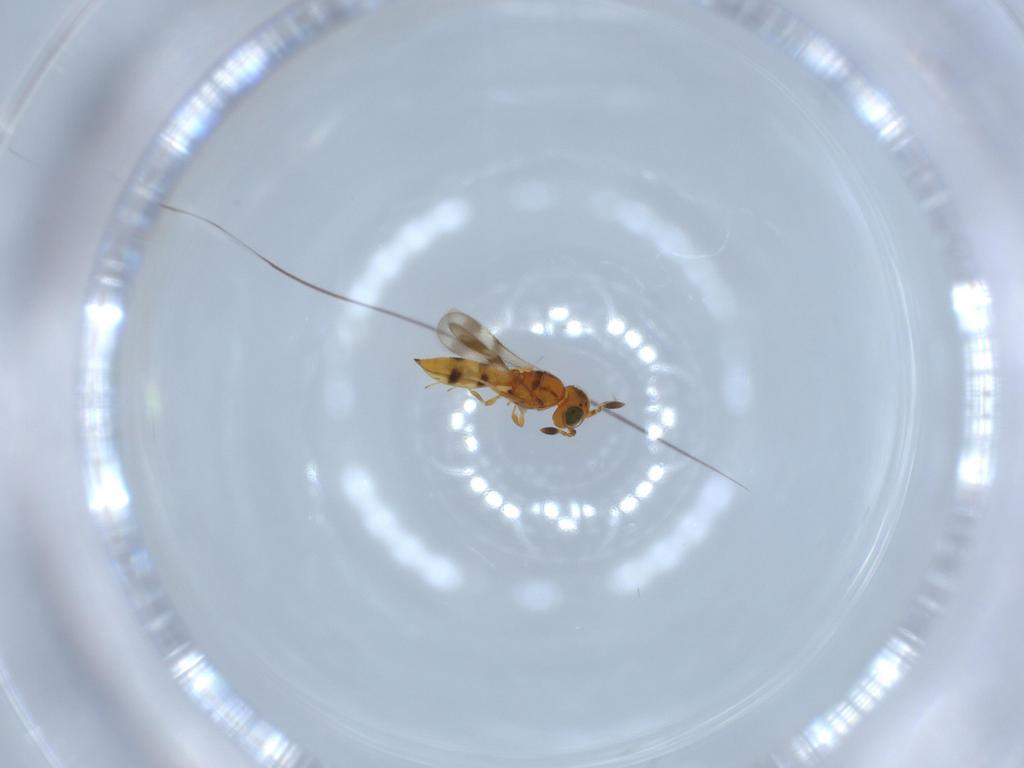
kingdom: Animalia
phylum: Arthropoda
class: Insecta
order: Hymenoptera
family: Scelionidae
